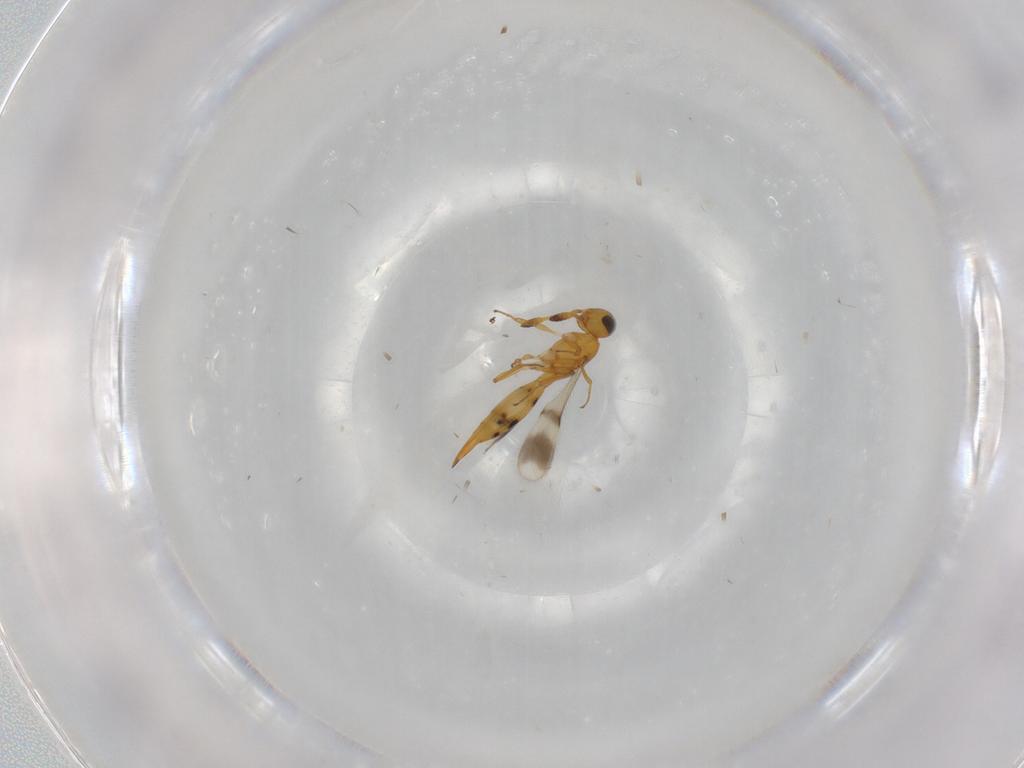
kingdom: Animalia
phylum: Arthropoda
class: Insecta
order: Hymenoptera
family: Scelionidae
